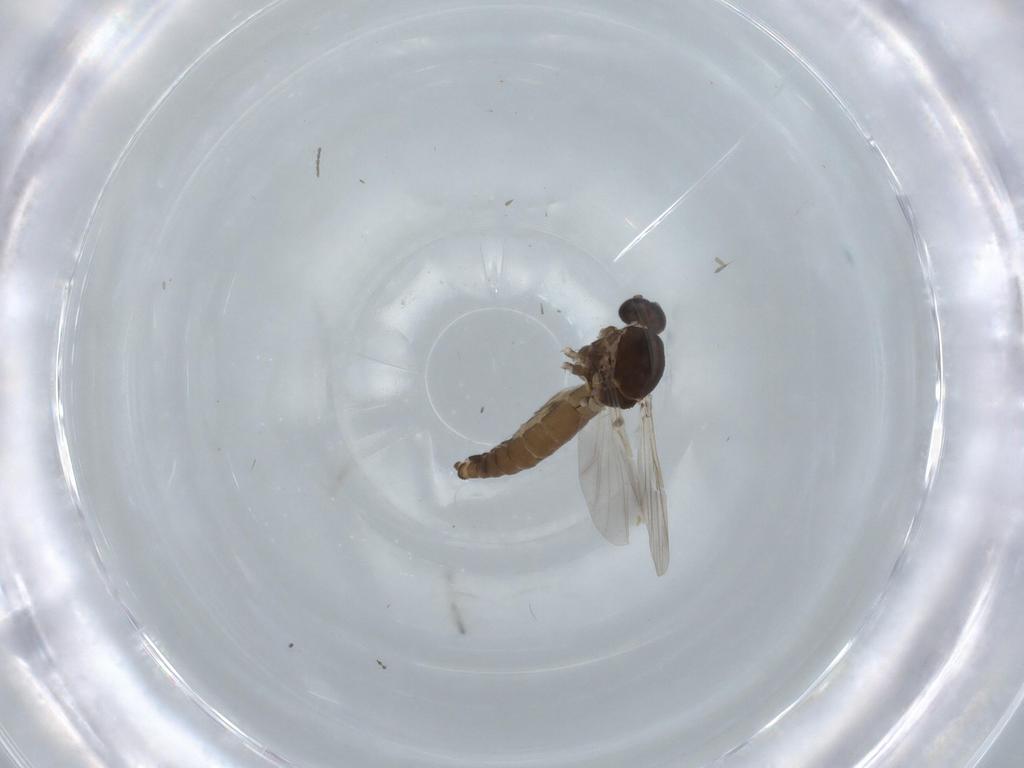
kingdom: Animalia
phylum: Arthropoda
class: Insecta
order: Diptera
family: Ceratopogonidae
